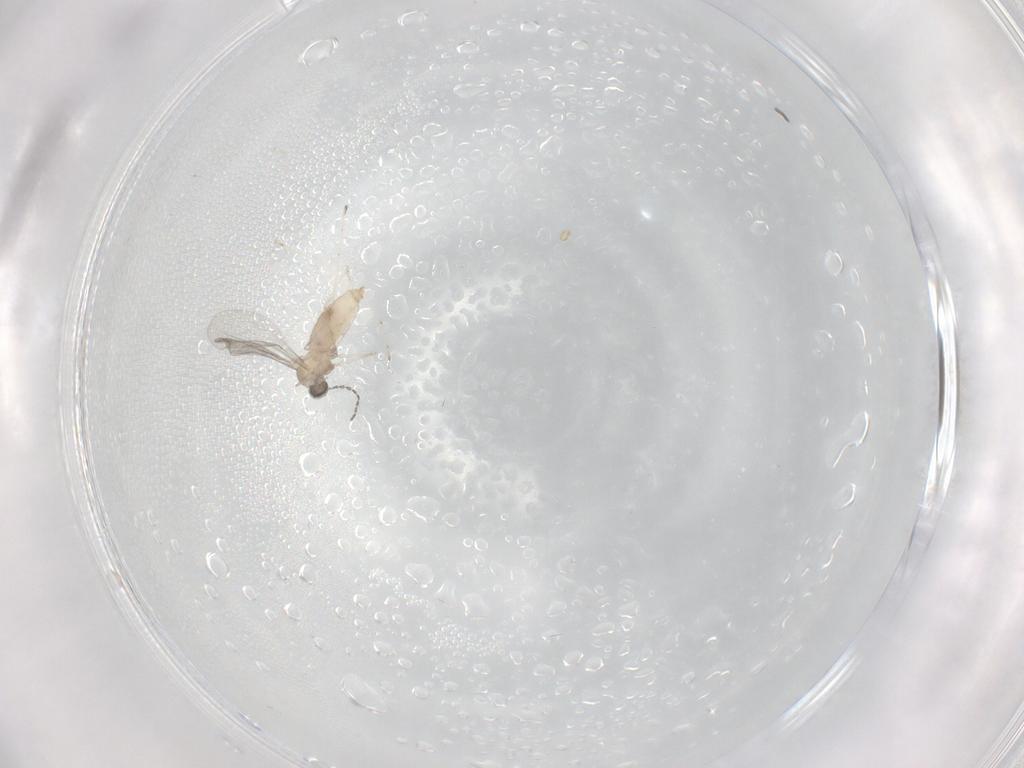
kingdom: Animalia
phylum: Arthropoda
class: Insecta
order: Diptera
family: Cecidomyiidae
